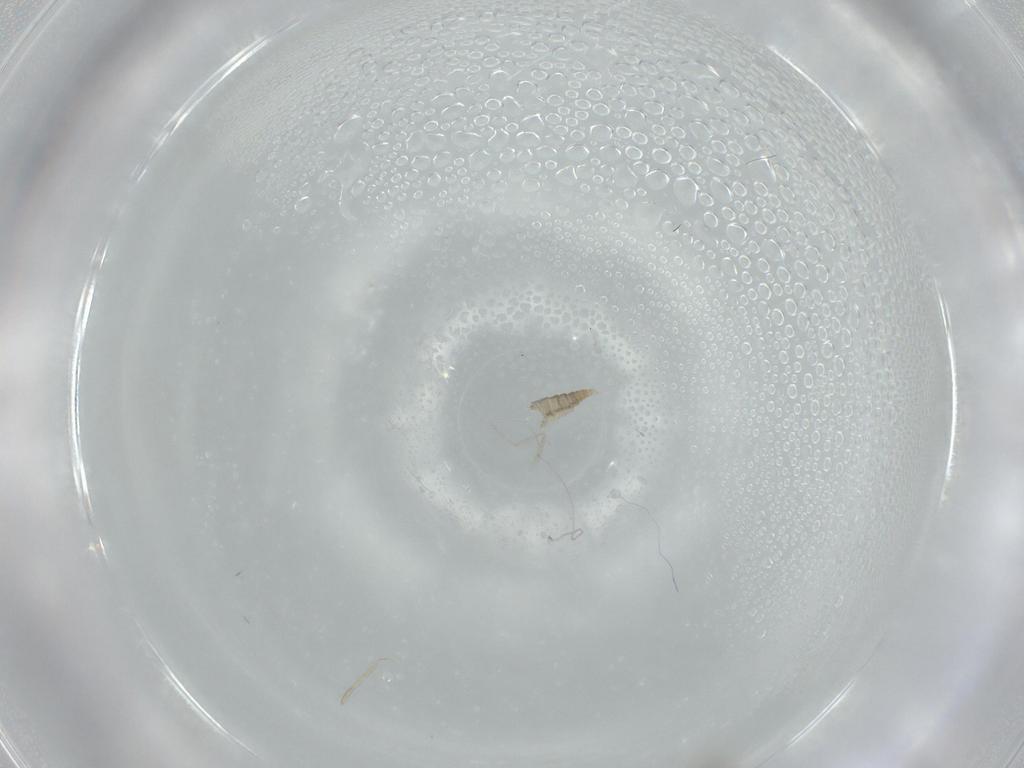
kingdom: Animalia
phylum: Arthropoda
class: Insecta
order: Diptera
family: Cecidomyiidae
